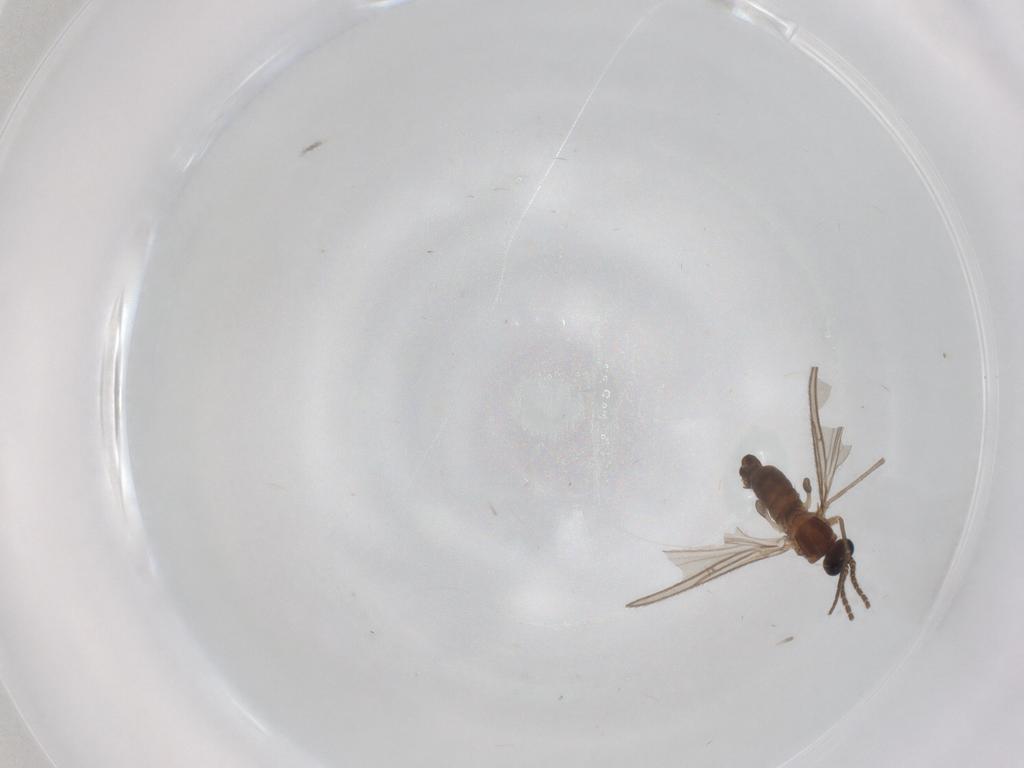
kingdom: Animalia
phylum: Arthropoda
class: Insecta
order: Diptera
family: Sciaridae
